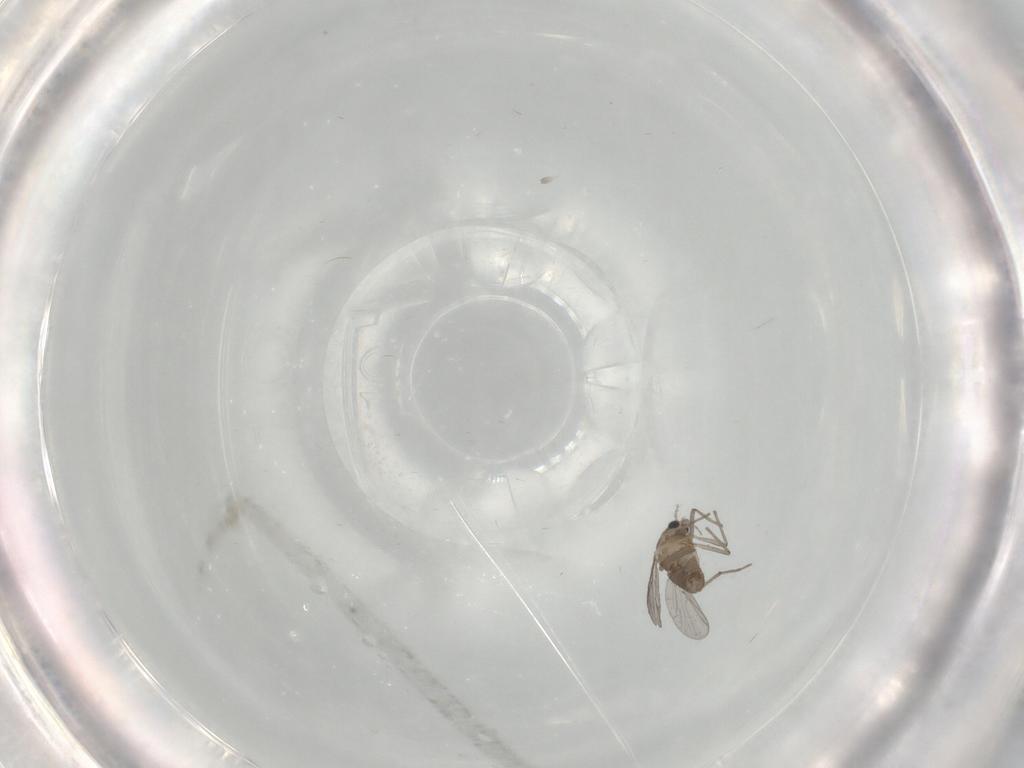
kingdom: Animalia
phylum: Arthropoda
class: Insecta
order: Diptera
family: Chironomidae
